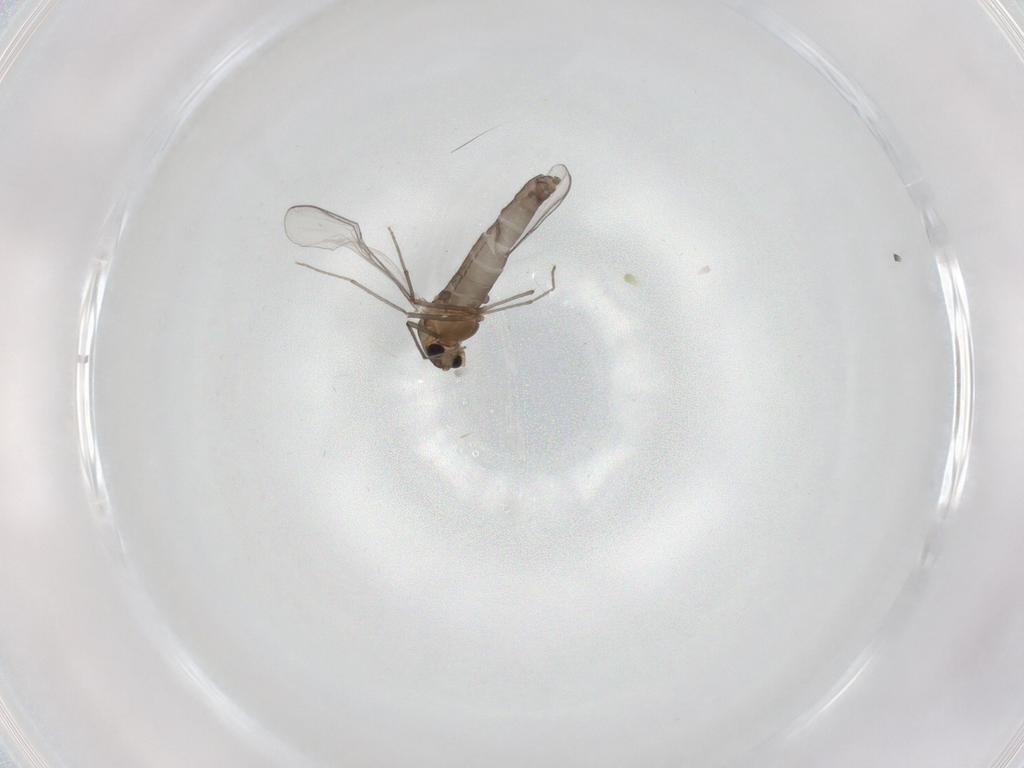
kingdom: Animalia
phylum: Arthropoda
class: Insecta
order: Diptera
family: Chironomidae
